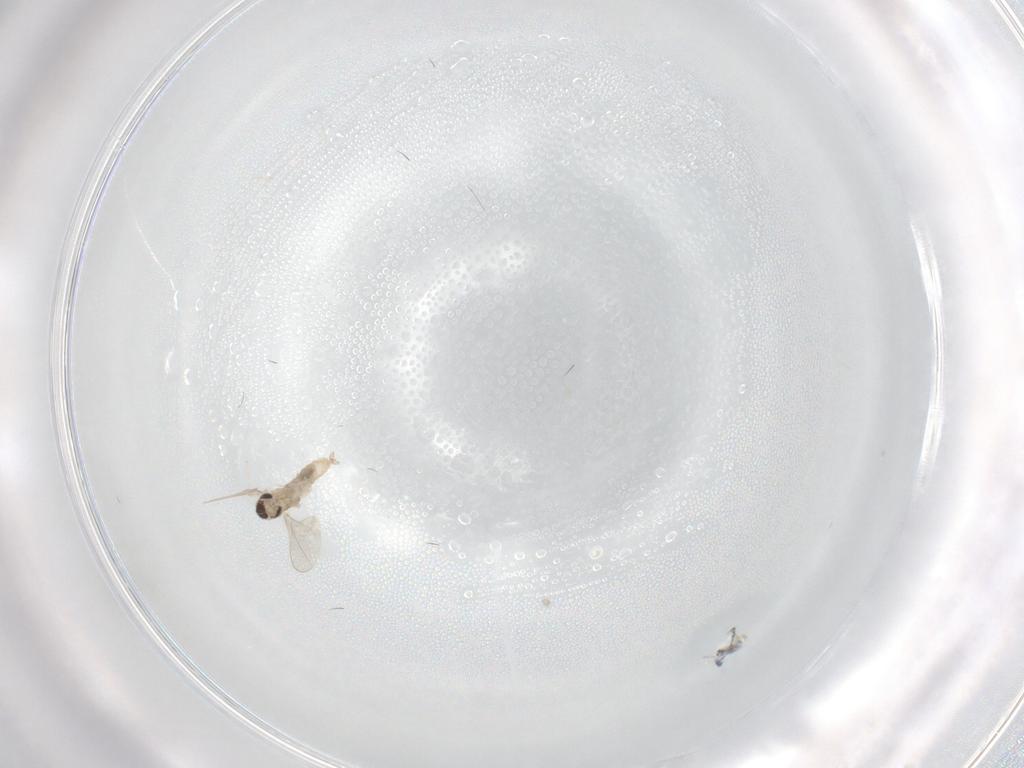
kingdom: Animalia
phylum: Arthropoda
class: Insecta
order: Diptera
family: Cecidomyiidae
